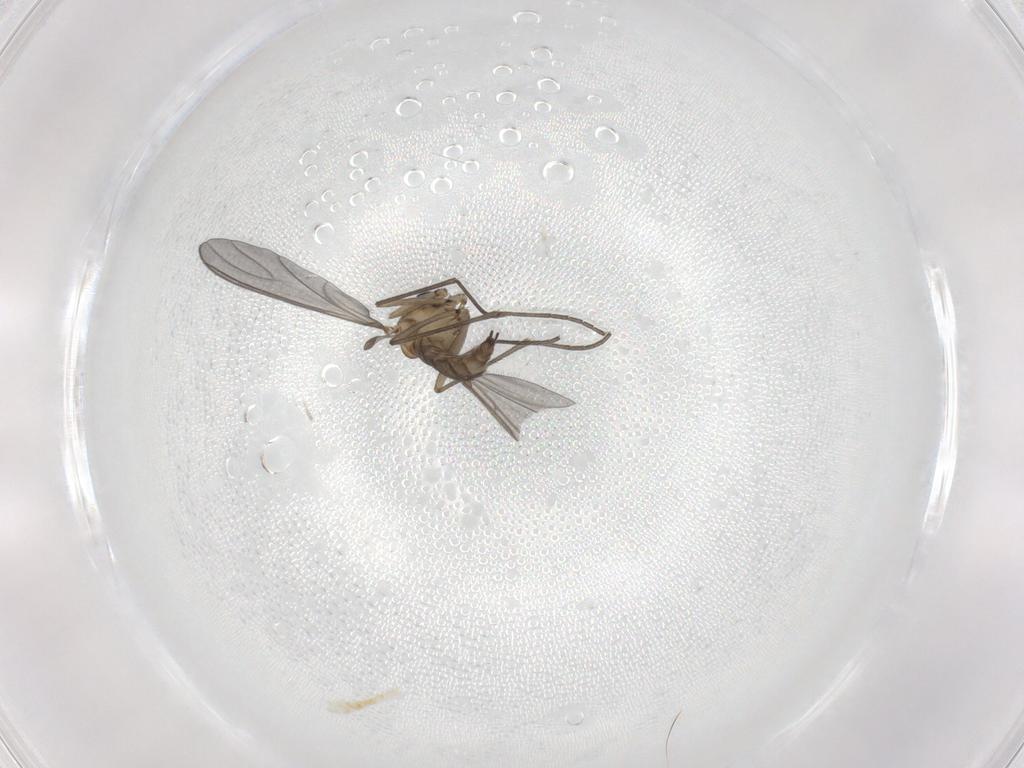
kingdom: Animalia
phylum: Arthropoda
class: Insecta
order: Diptera
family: Sciaridae
